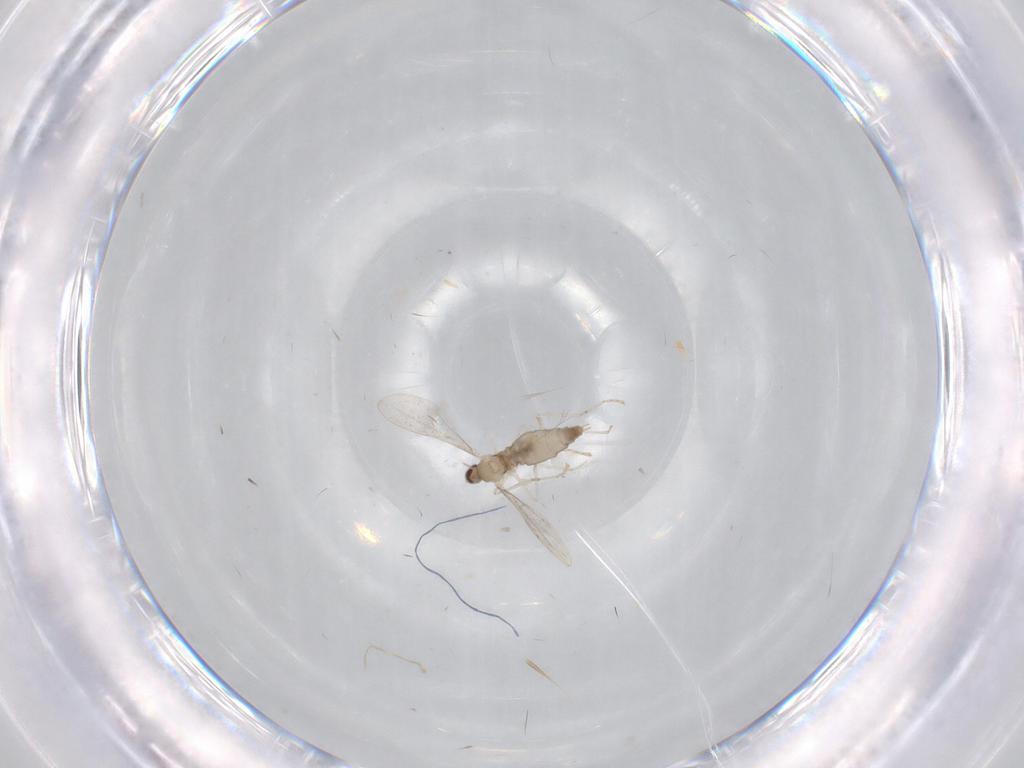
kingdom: Animalia
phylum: Arthropoda
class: Insecta
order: Diptera
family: Cecidomyiidae
